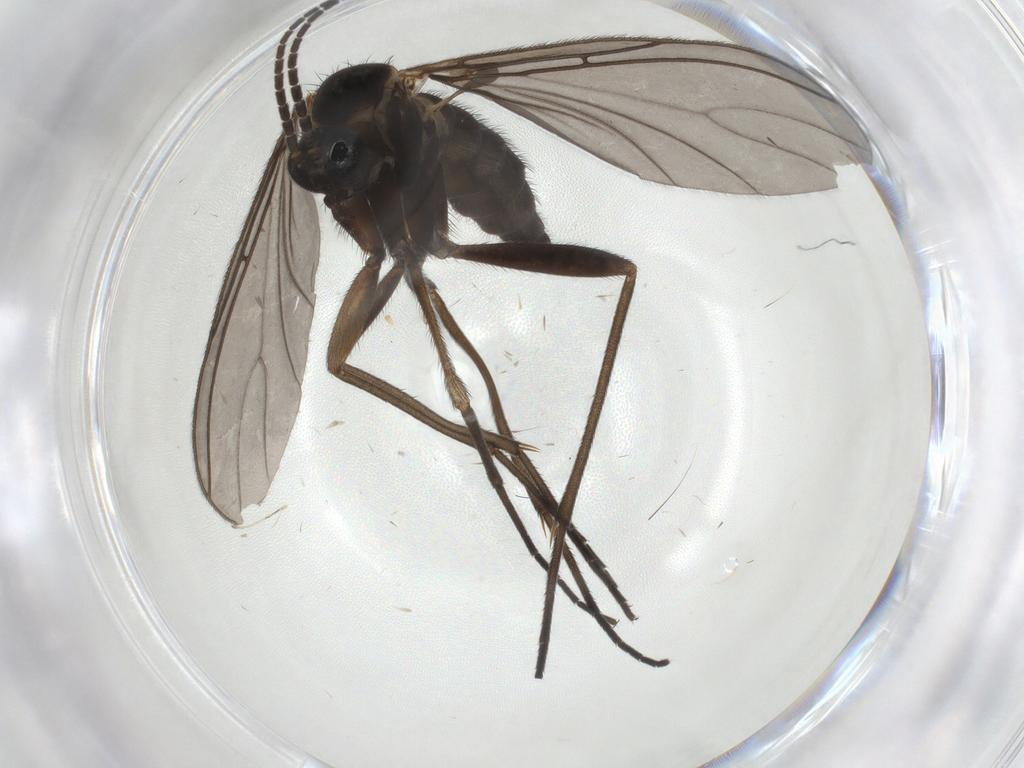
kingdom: Animalia
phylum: Arthropoda
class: Insecta
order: Diptera
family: Sciaridae
